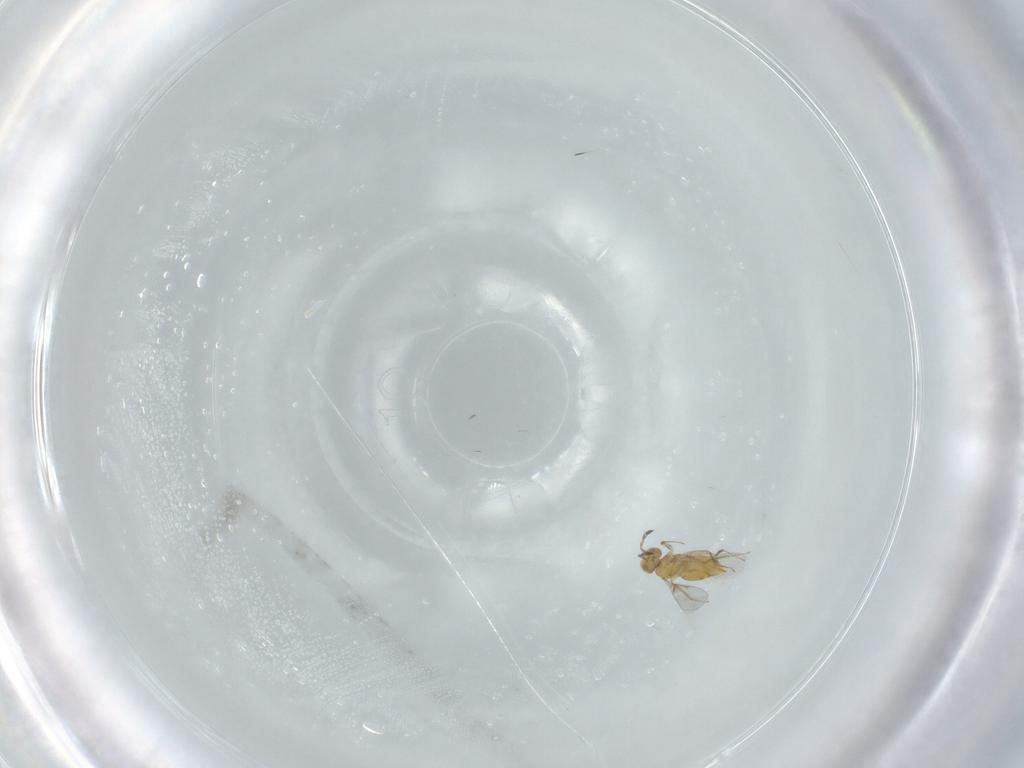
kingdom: Animalia
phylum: Arthropoda
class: Insecta
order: Hymenoptera
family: Aphelinidae
